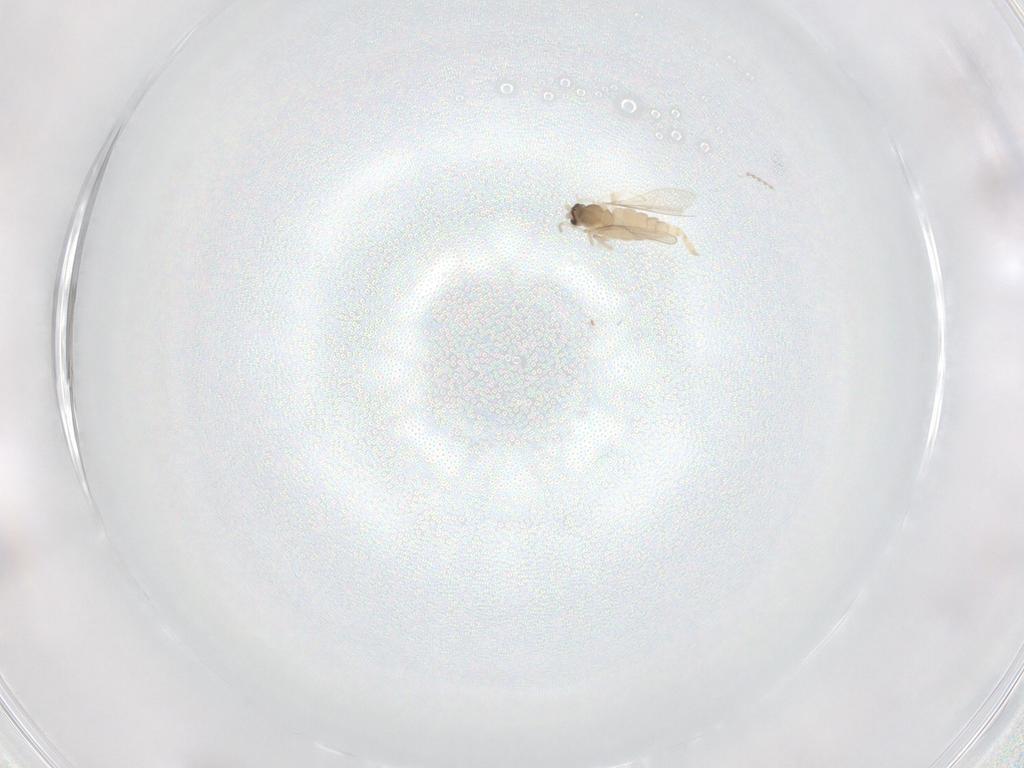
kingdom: Animalia
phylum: Arthropoda
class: Insecta
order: Diptera
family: Cecidomyiidae
